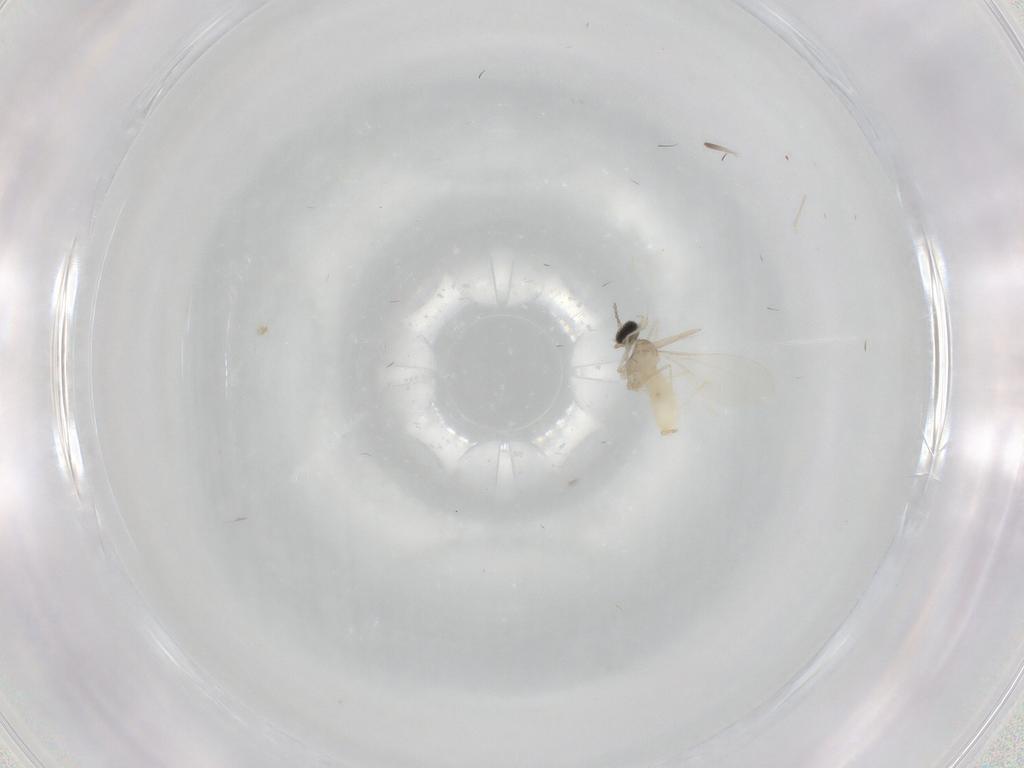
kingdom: Animalia
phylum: Arthropoda
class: Insecta
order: Diptera
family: Cecidomyiidae
